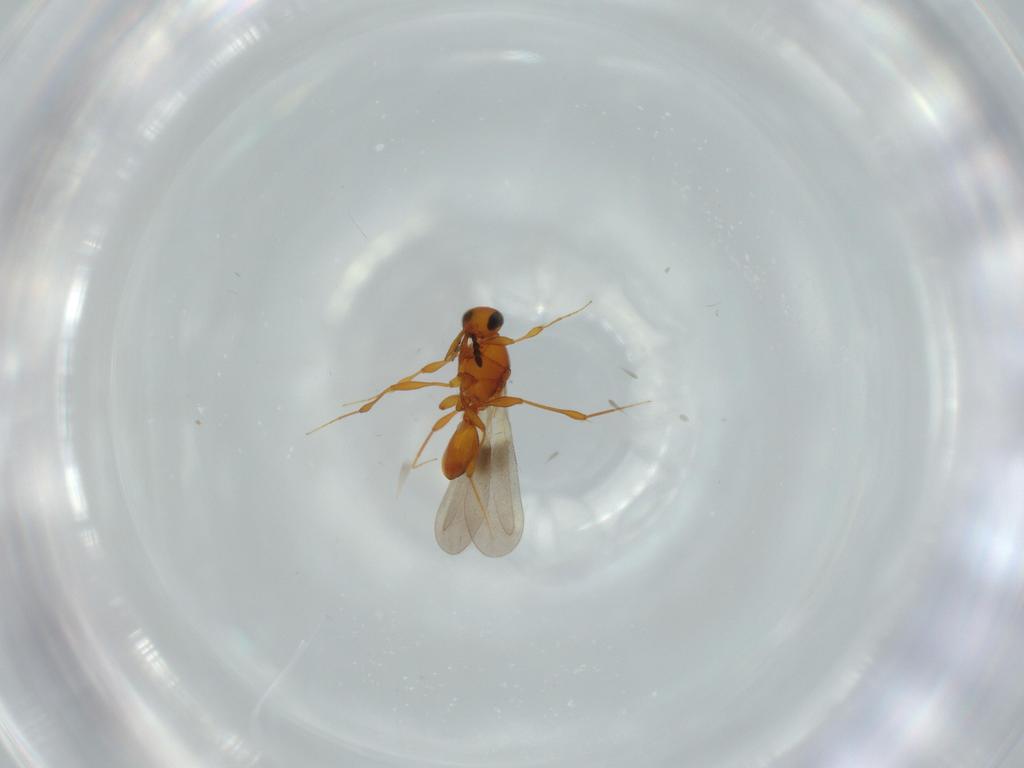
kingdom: Animalia
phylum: Arthropoda
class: Insecta
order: Hymenoptera
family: Platygastridae
